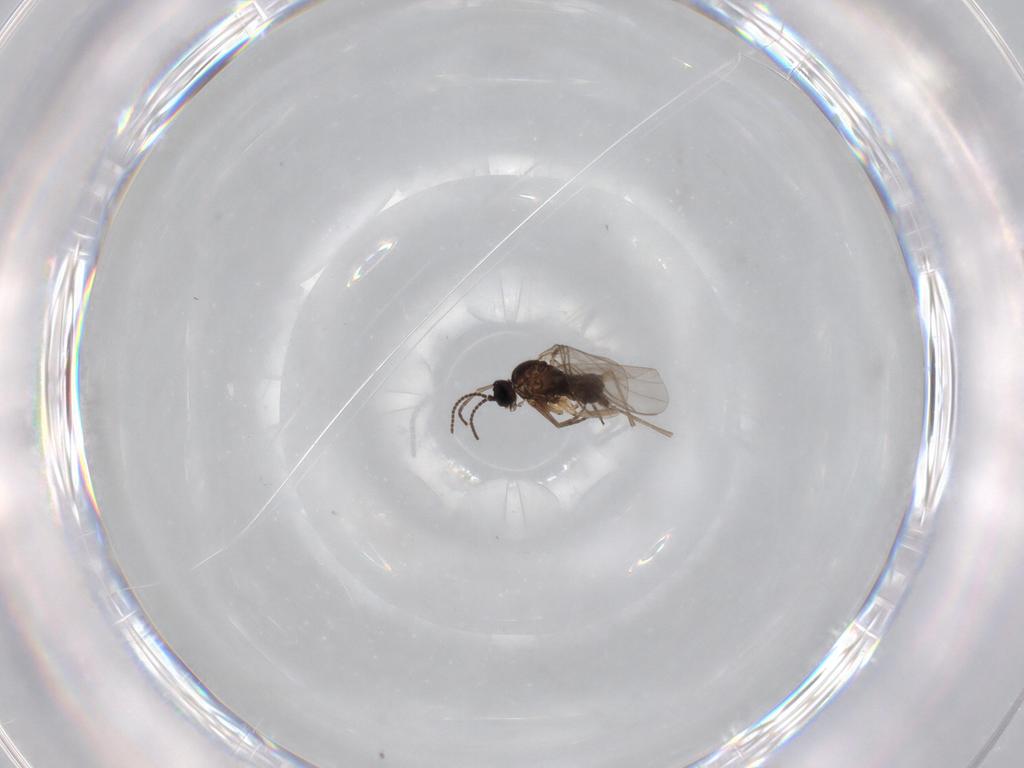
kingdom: Animalia
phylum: Arthropoda
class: Insecta
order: Diptera
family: Sciaridae
